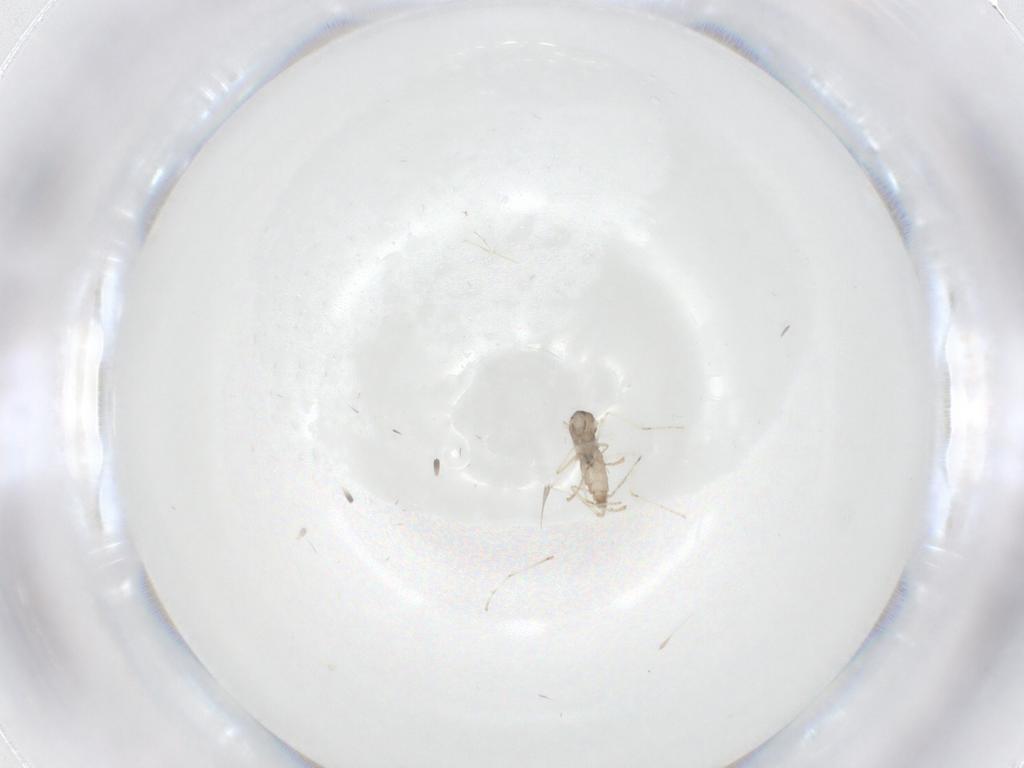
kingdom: Animalia
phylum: Arthropoda
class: Insecta
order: Diptera
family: Cecidomyiidae
